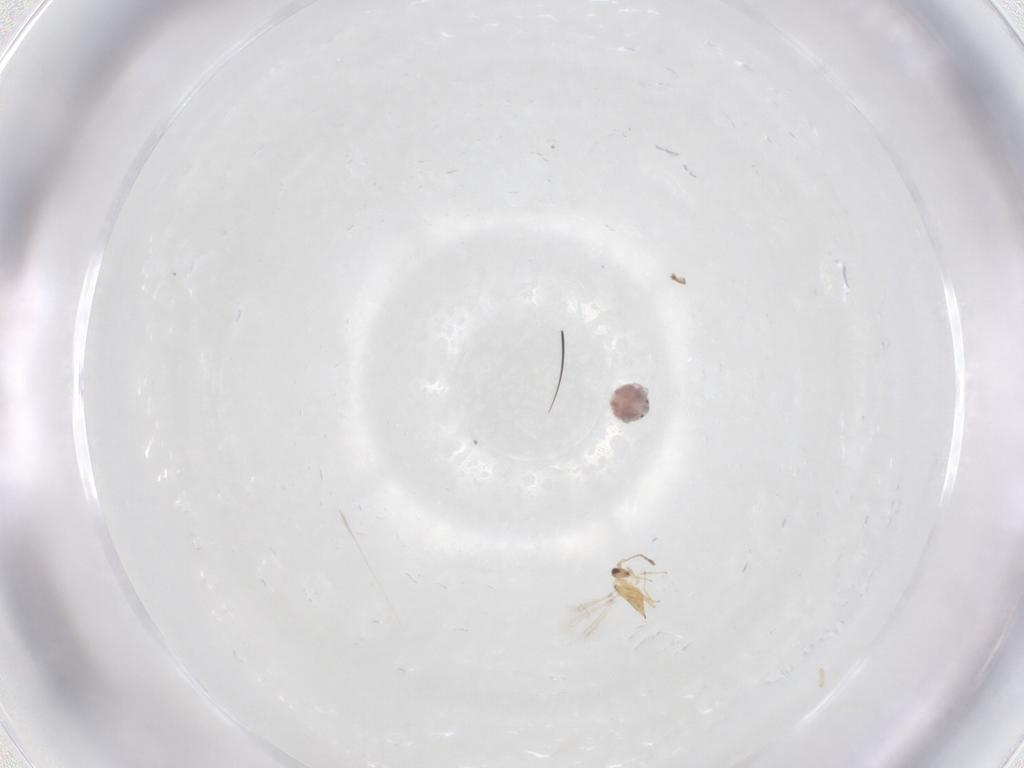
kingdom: Animalia
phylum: Arthropoda
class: Insecta
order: Hymenoptera
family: Mymaridae
